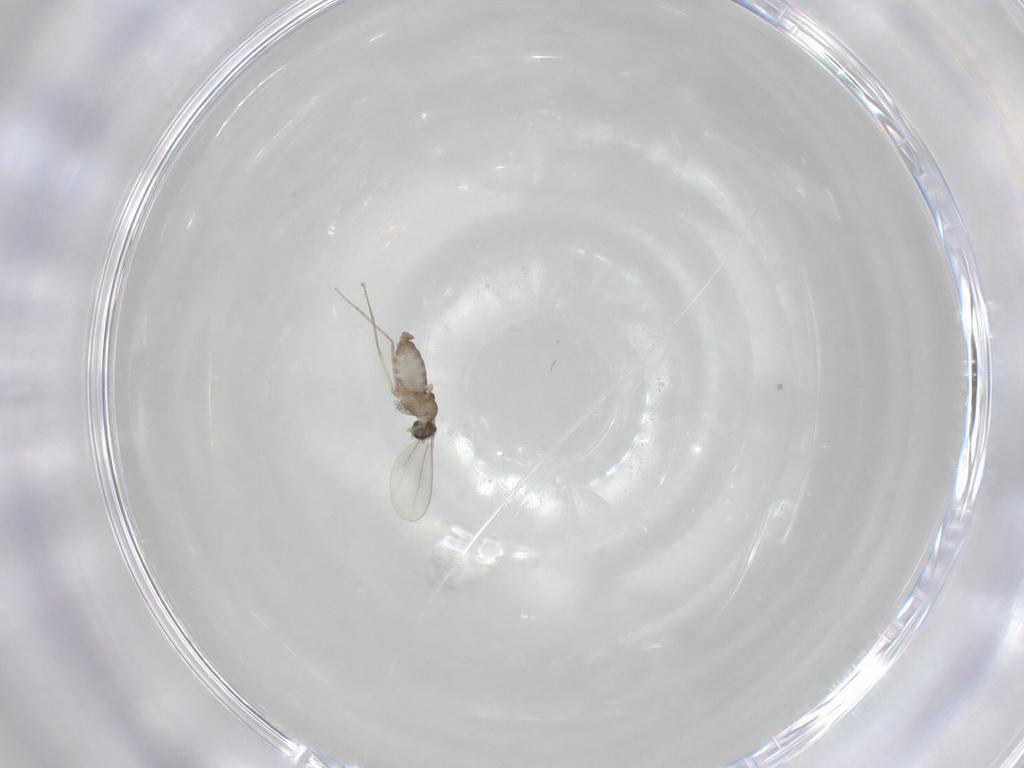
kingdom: Animalia
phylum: Arthropoda
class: Insecta
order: Diptera
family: Cecidomyiidae
